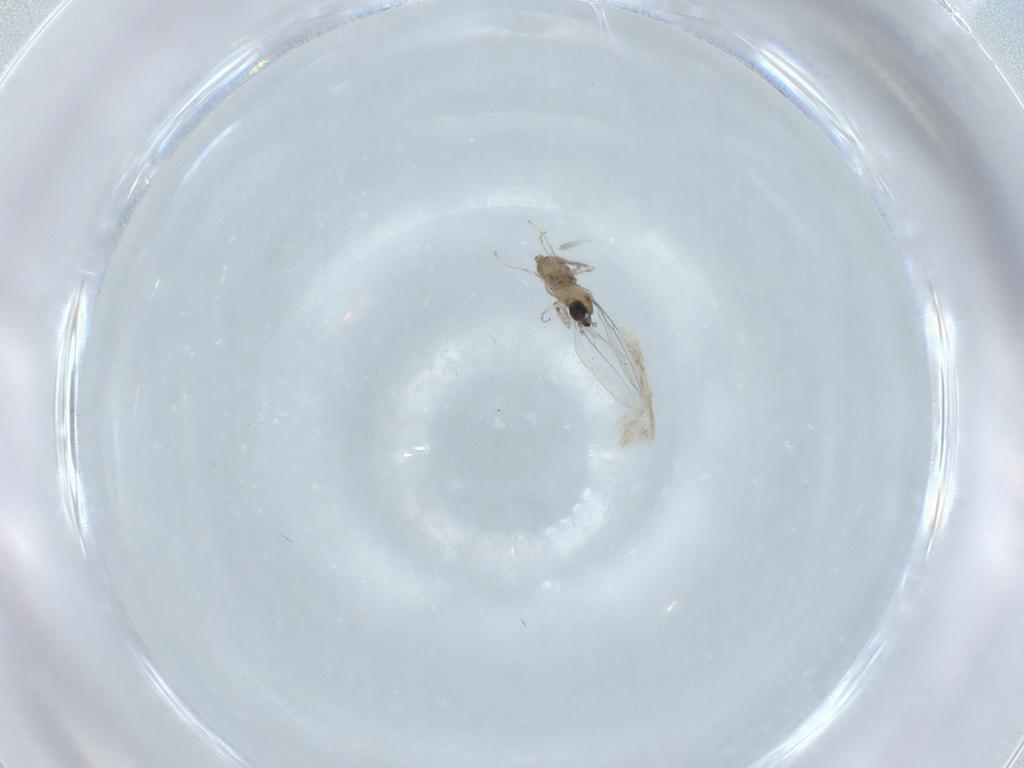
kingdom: Animalia
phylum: Arthropoda
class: Insecta
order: Diptera
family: Cecidomyiidae
